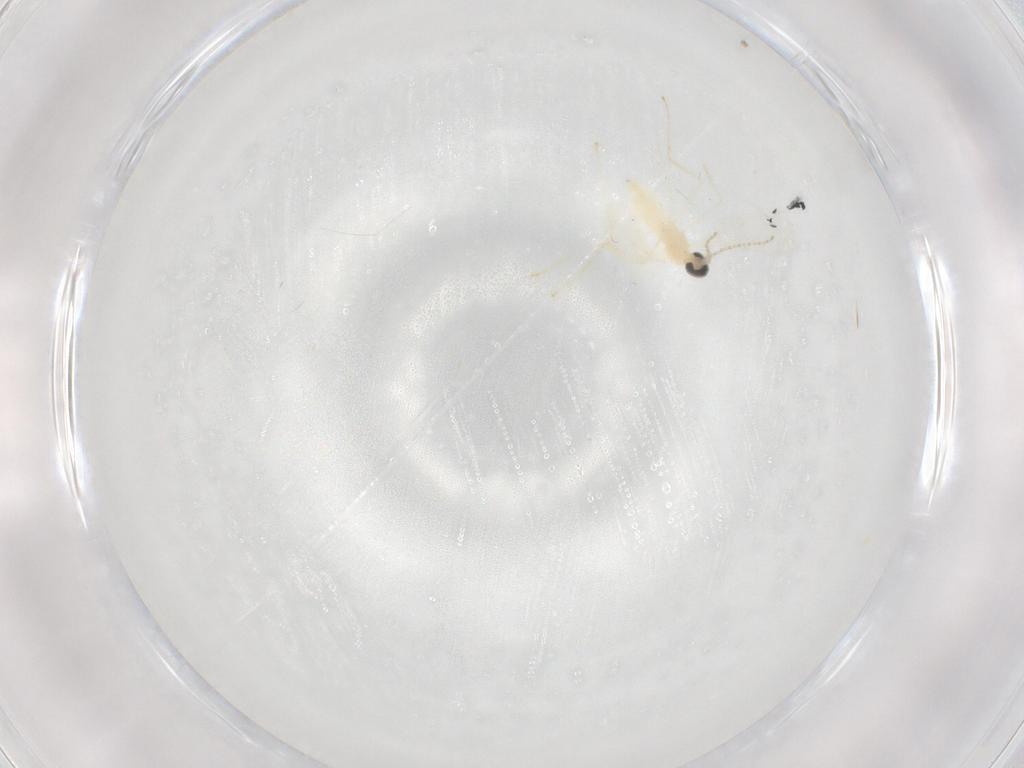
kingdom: Animalia
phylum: Arthropoda
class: Insecta
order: Diptera
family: Cecidomyiidae
